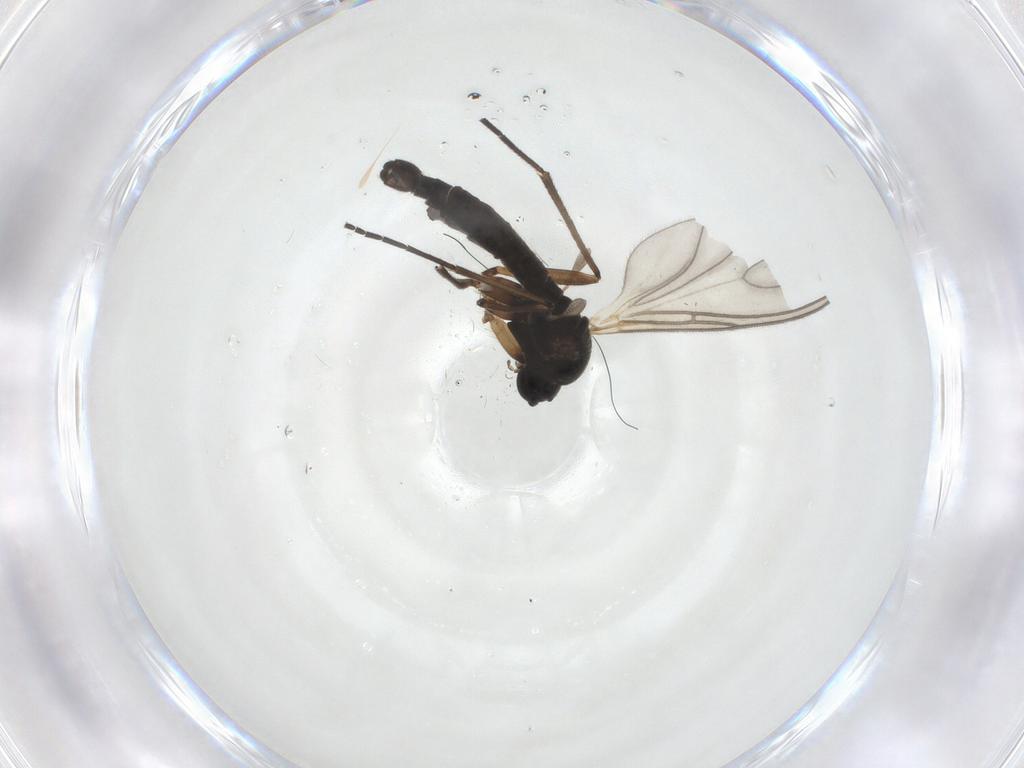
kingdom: Animalia
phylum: Arthropoda
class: Insecta
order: Diptera
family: Sciaridae
